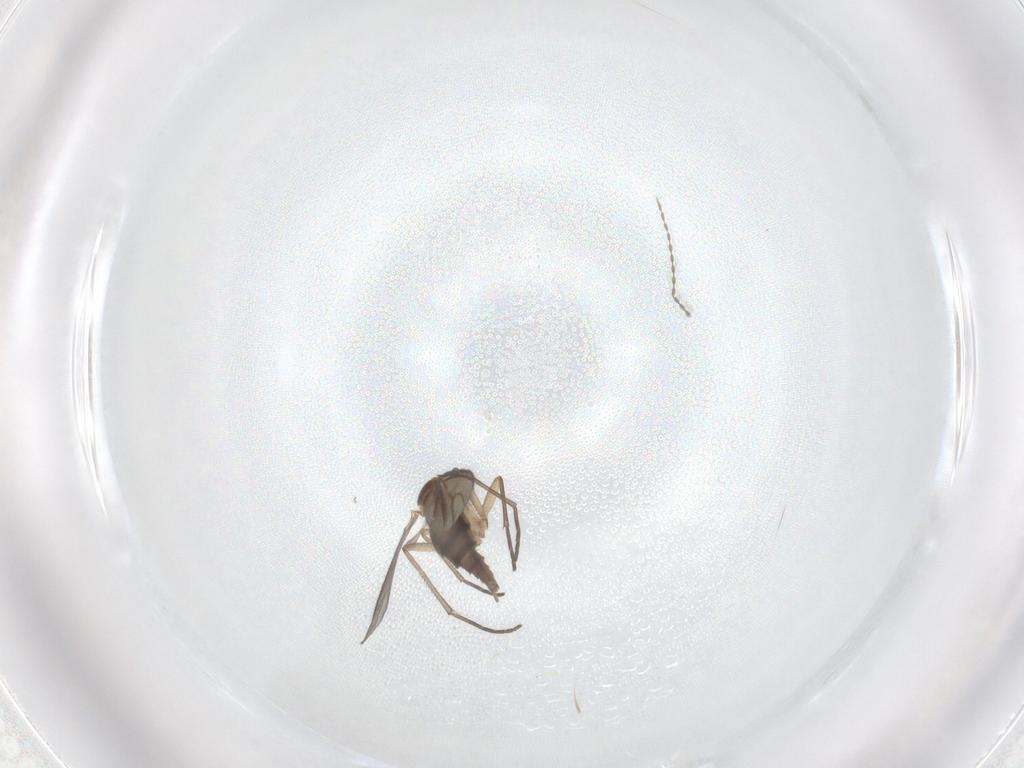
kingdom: Animalia
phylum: Arthropoda
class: Insecta
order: Diptera
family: Sciaridae
